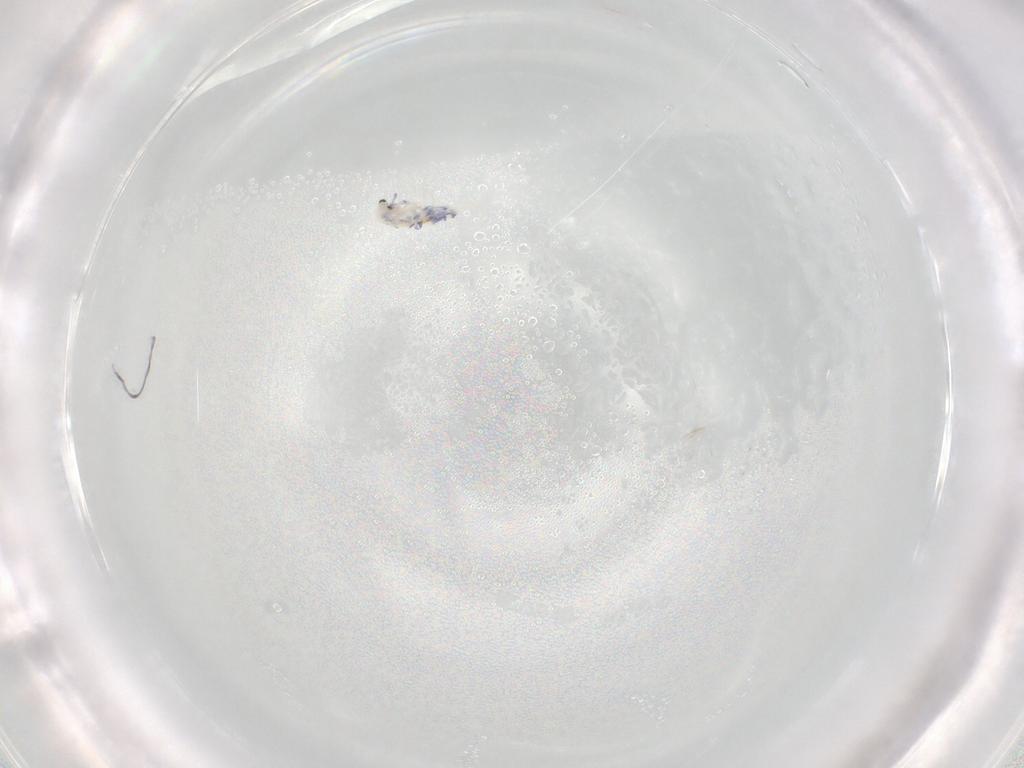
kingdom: Animalia
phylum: Arthropoda
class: Collembola
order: Entomobryomorpha
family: Entomobryidae
